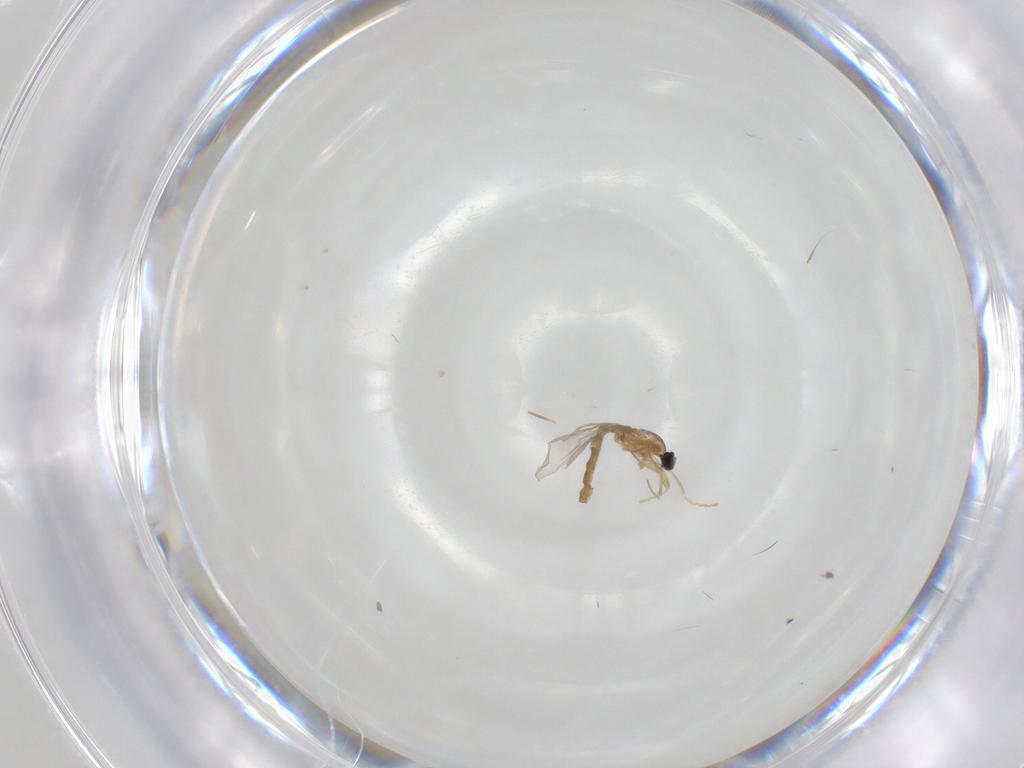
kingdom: Animalia
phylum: Arthropoda
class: Insecta
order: Diptera
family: Cecidomyiidae
